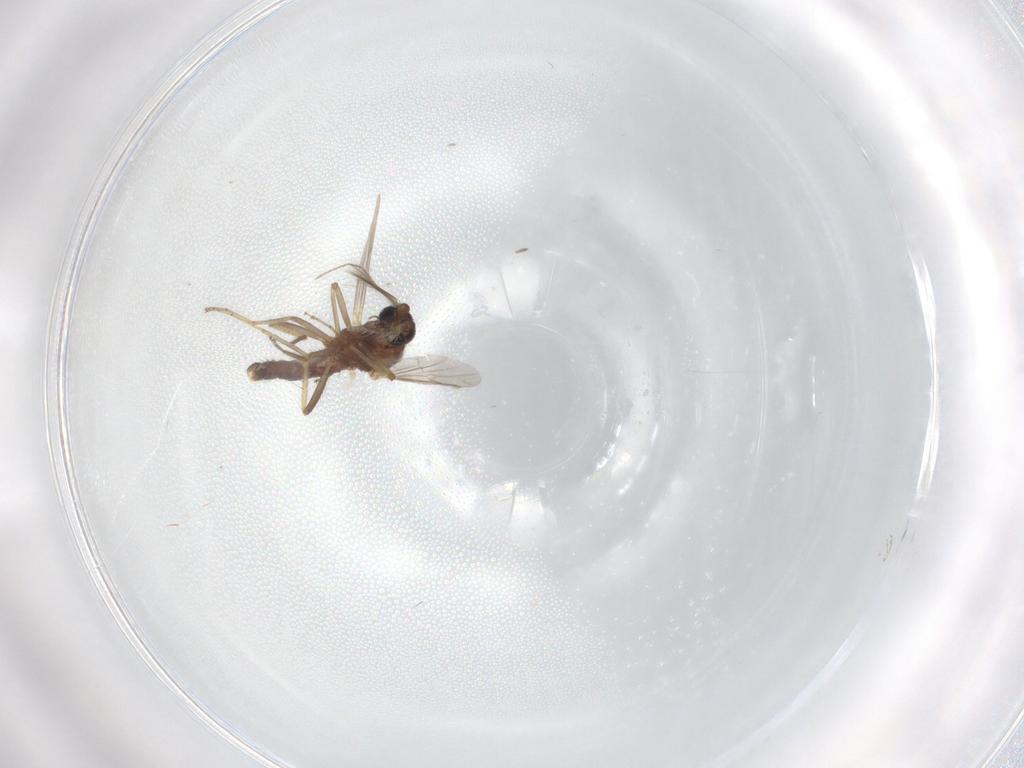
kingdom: Animalia
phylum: Arthropoda
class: Insecta
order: Diptera
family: Ceratopogonidae
